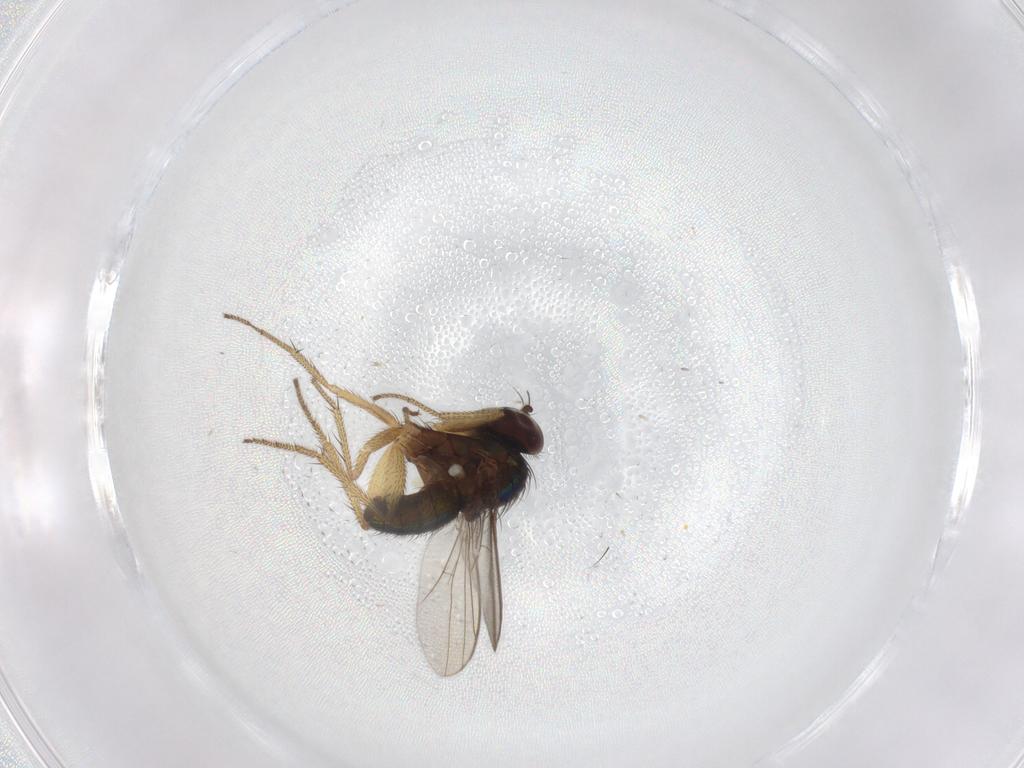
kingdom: Animalia
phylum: Arthropoda
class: Insecta
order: Diptera
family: Dolichopodidae
